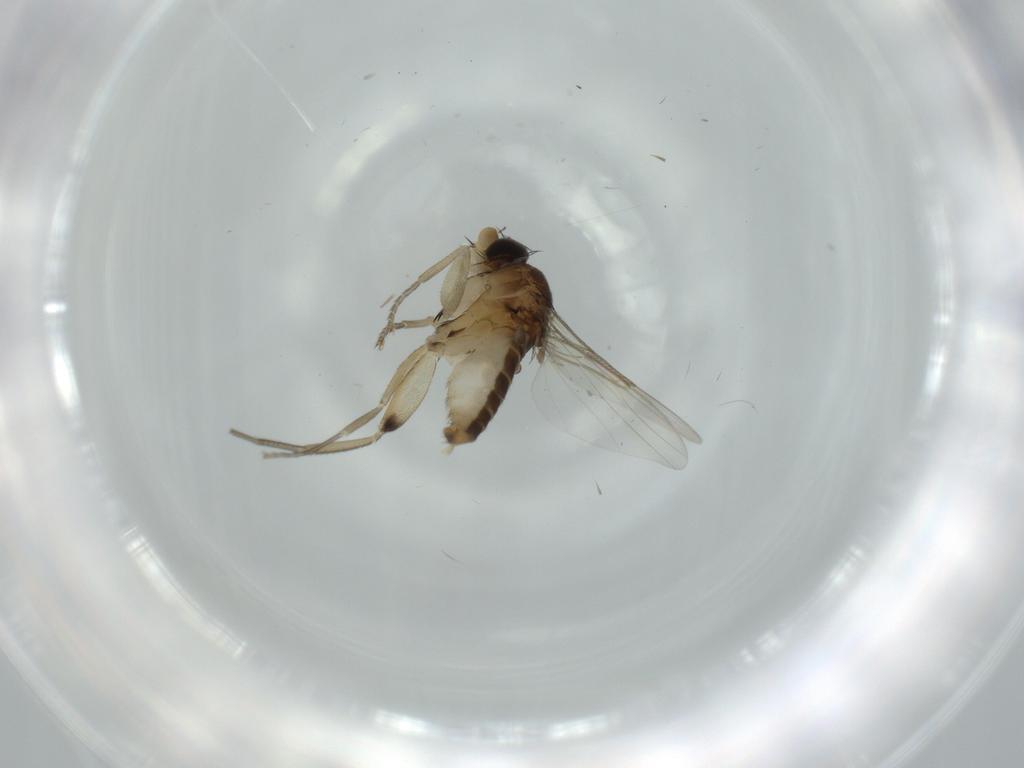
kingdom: Animalia
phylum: Arthropoda
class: Insecta
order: Diptera
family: Phoridae
